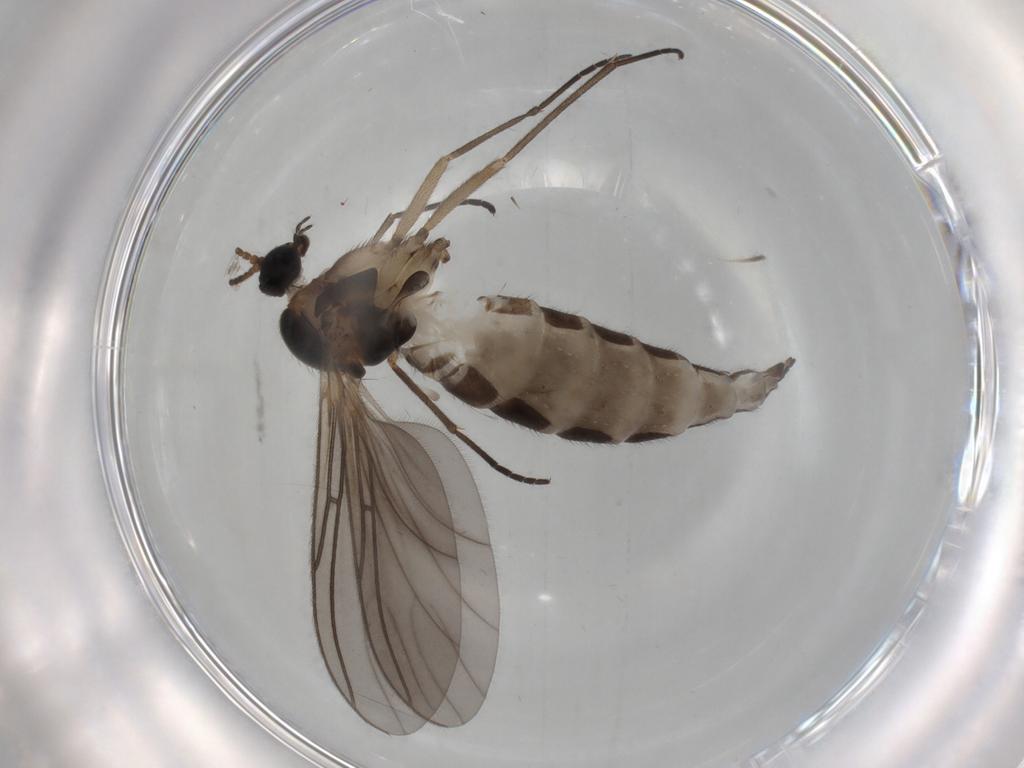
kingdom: Animalia
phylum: Arthropoda
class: Insecta
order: Diptera
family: Sciaridae
